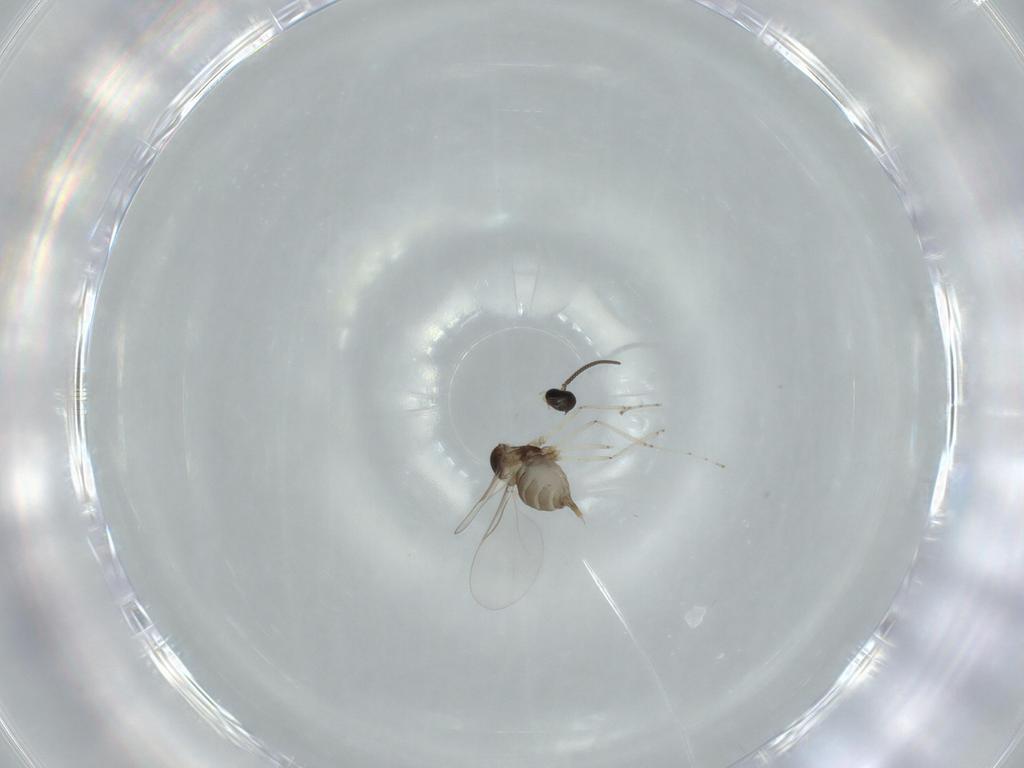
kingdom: Animalia
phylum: Arthropoda
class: Insecta
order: Diptera
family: Cecidomyiidae
